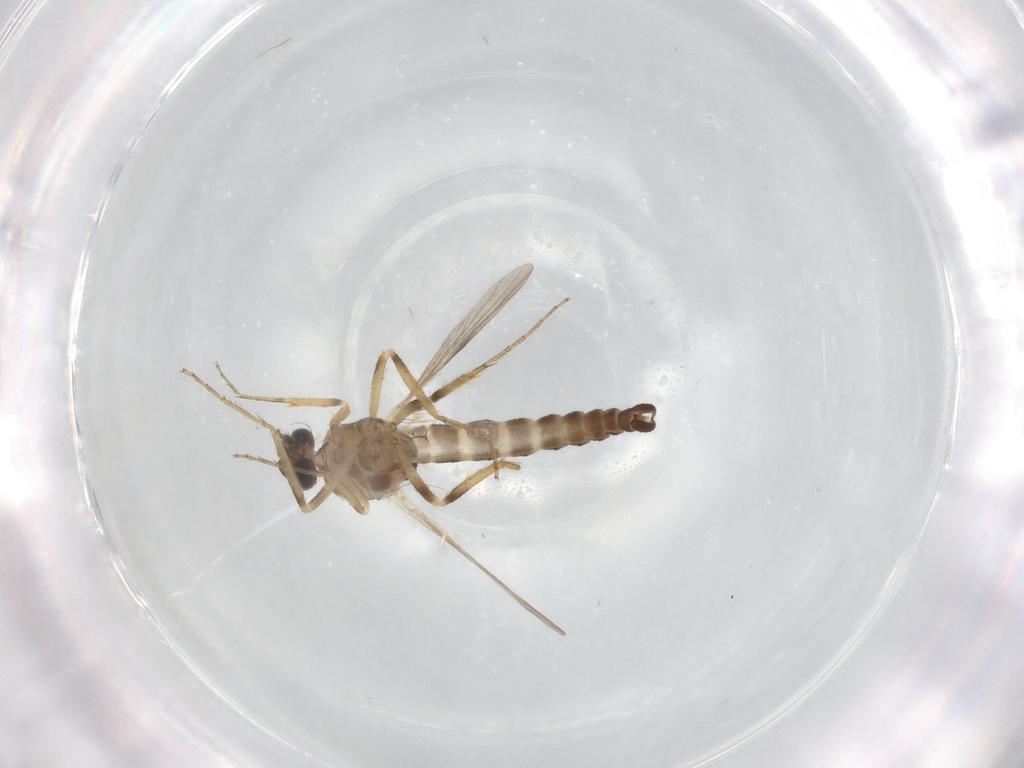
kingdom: Animalia
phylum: Arthropoda
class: Insecta
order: Diptera
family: Ceratopogonidae
